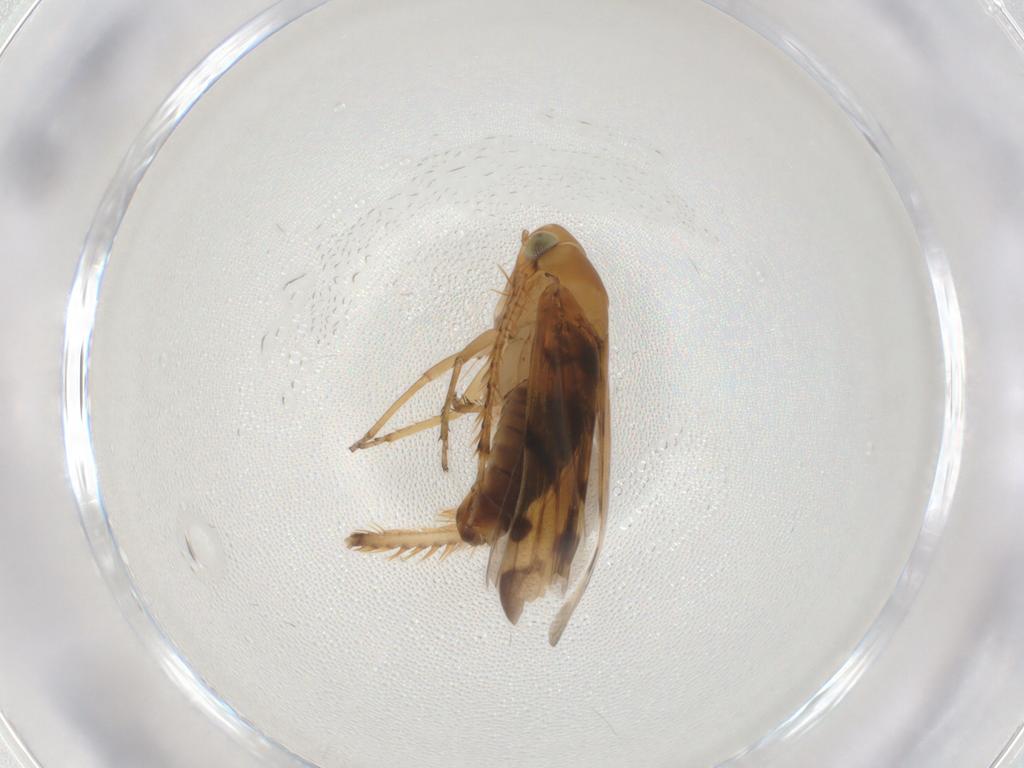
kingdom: Animalia
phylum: Arthropoda
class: Insecta
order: Hemiptera
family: Cicadellidae
